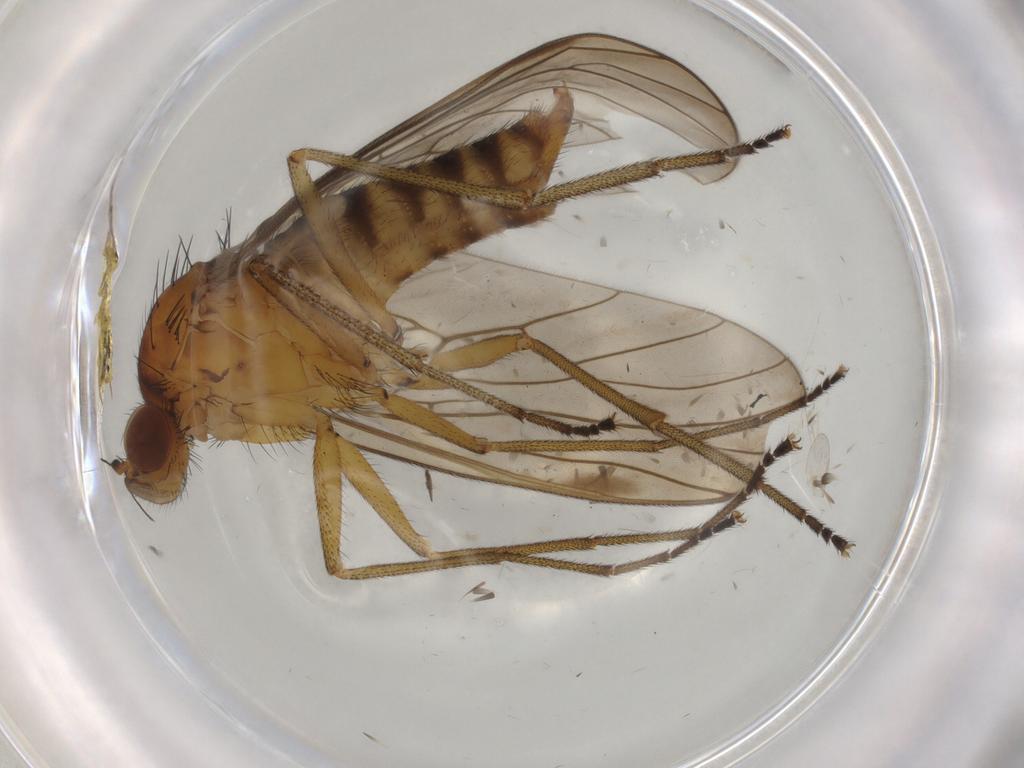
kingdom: Animalia
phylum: Arthropoda
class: Insecta
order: Diptera
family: Brachystomatidae
